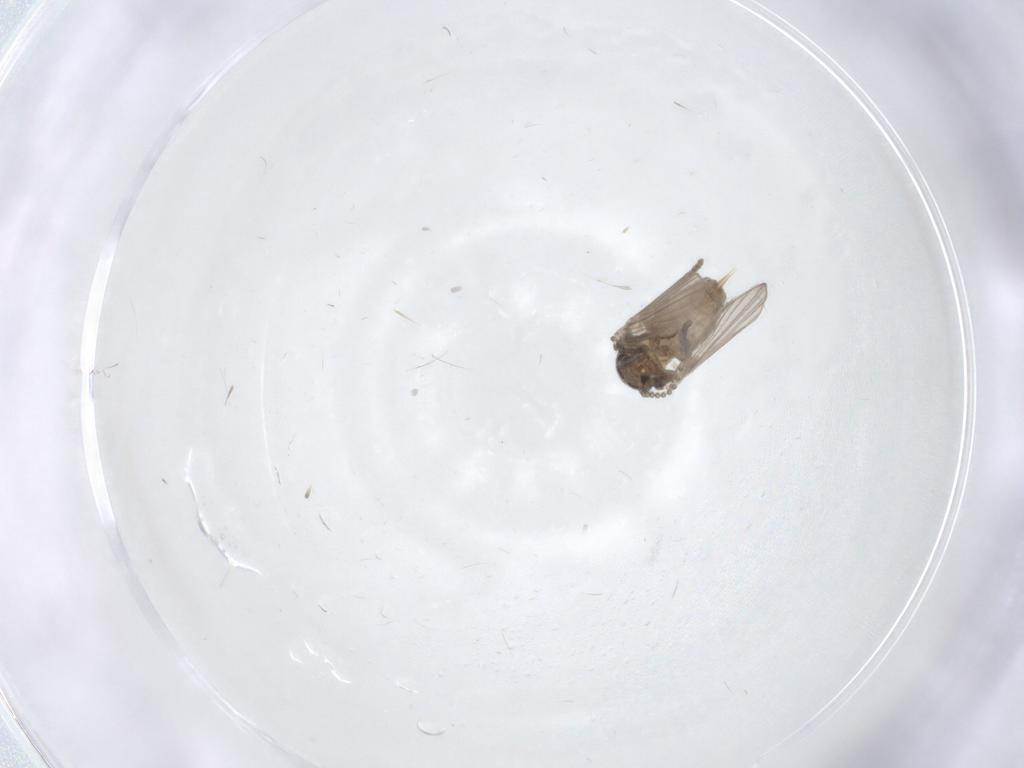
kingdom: Animalia
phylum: Arthropoda
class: Insecta
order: Diptera
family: Psychodidae
